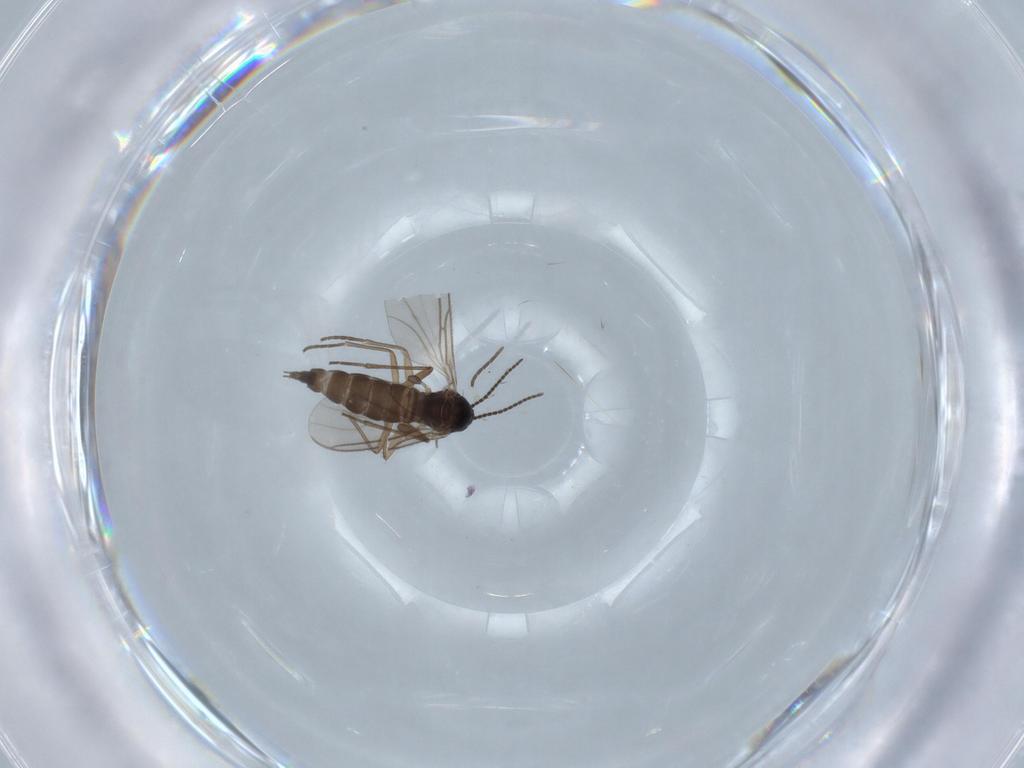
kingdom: Animalia
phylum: Arthropoda
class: Insecta
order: Diptera
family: Sciaridae
